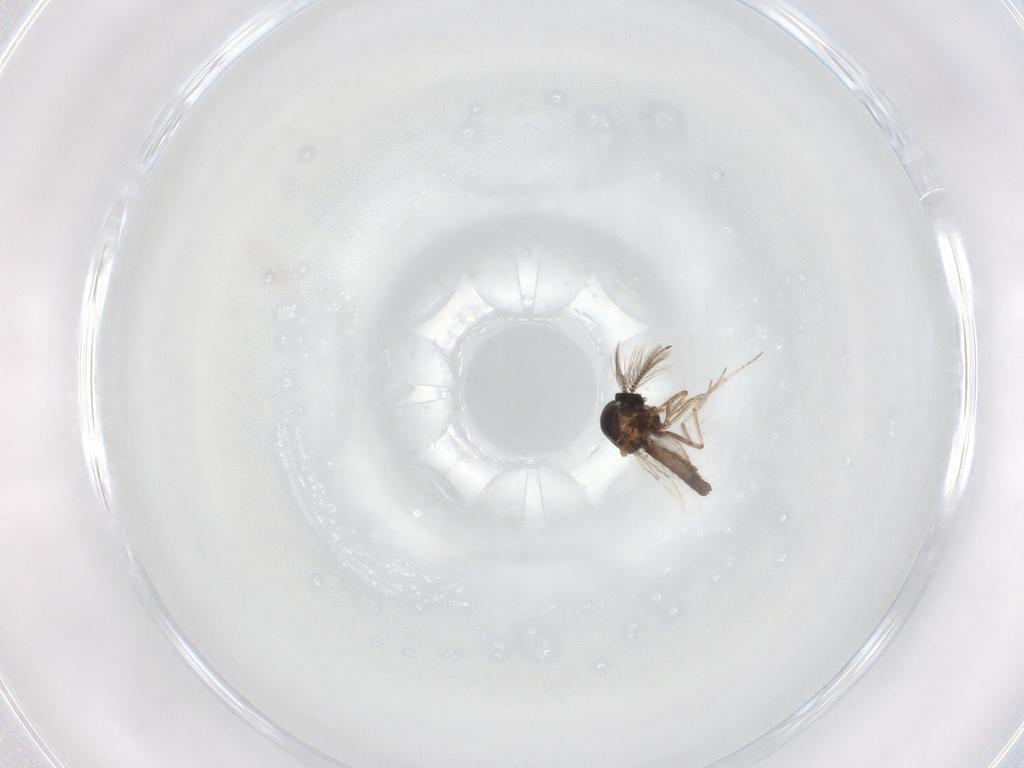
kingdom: Animalia
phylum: Arthropoda
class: Insecta
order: Diptera
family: Ceratopogonidae
